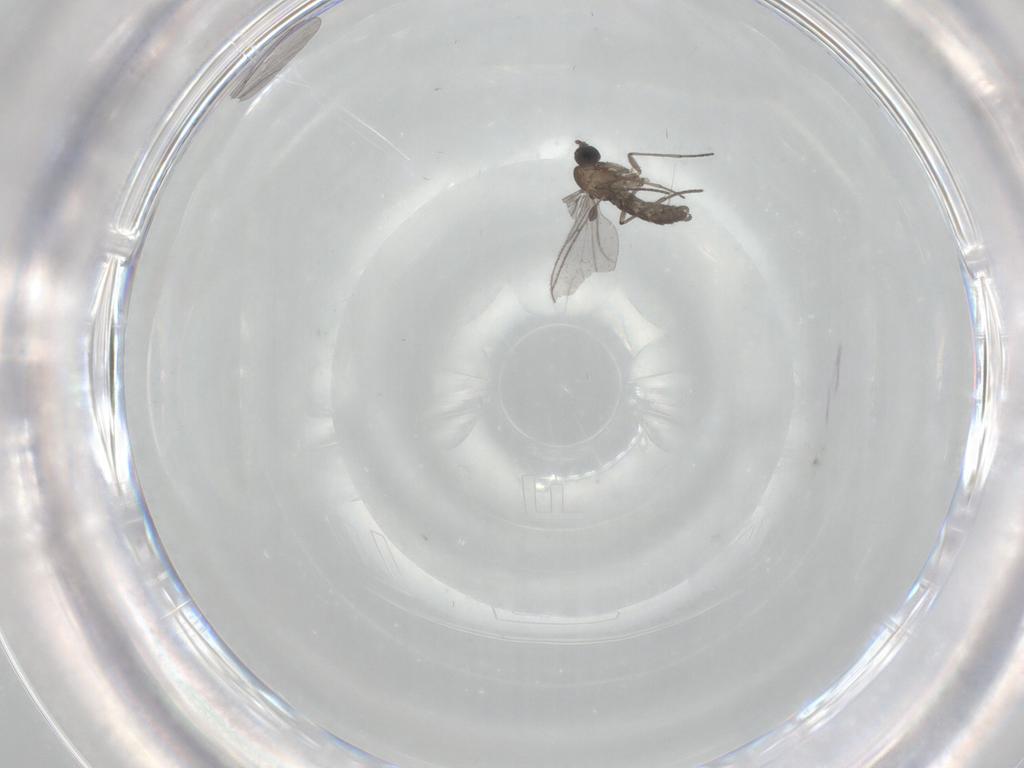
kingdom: Animalia
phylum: Arthropoda
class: Insecta
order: Diptera
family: Sciaridae
